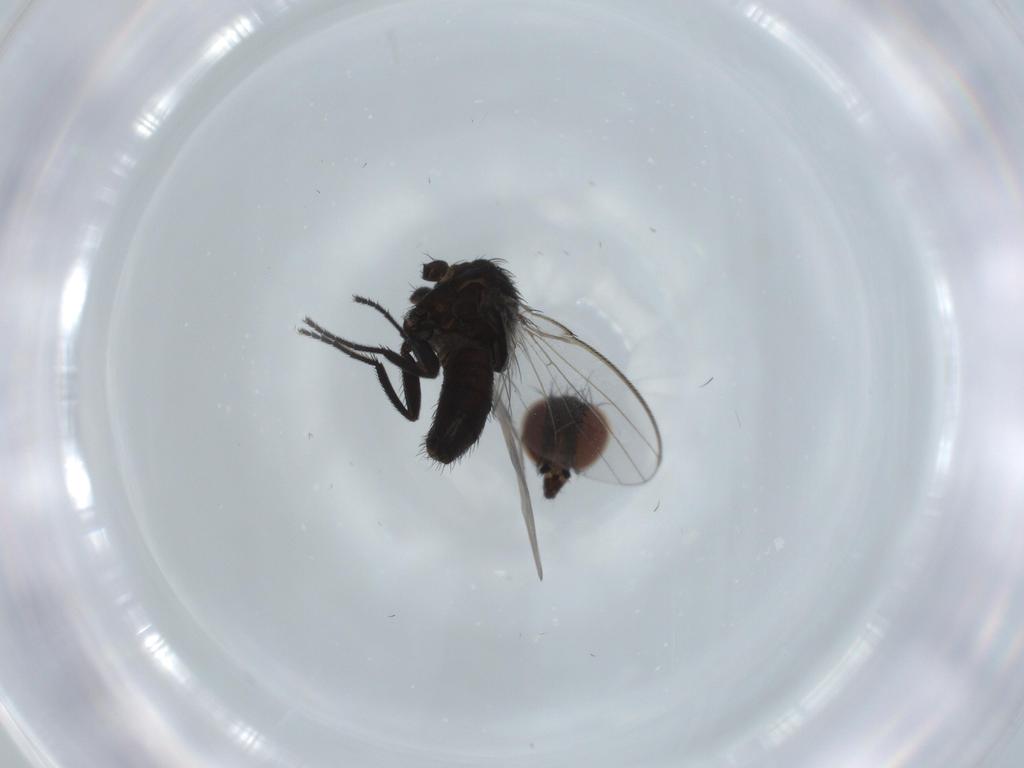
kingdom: Animalia
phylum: Arthropoda
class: Insecta
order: Diptera
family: Milichiidae
